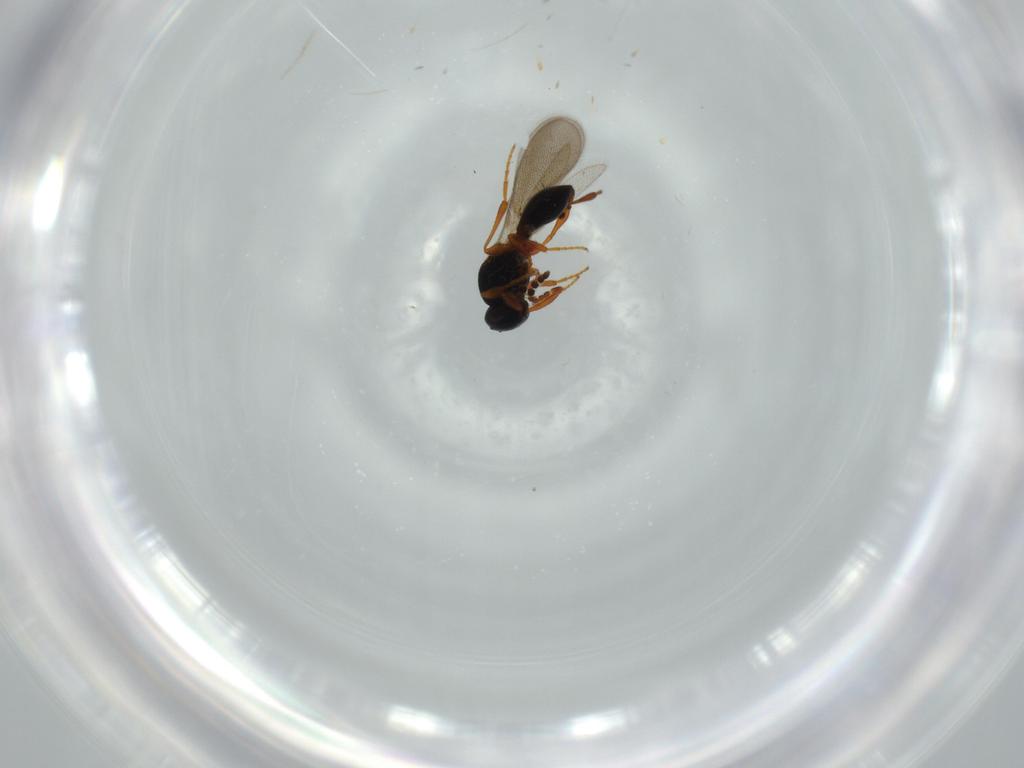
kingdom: Animalia
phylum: Arthropoda
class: Insecta
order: Hymenoptera
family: Platygastridae
